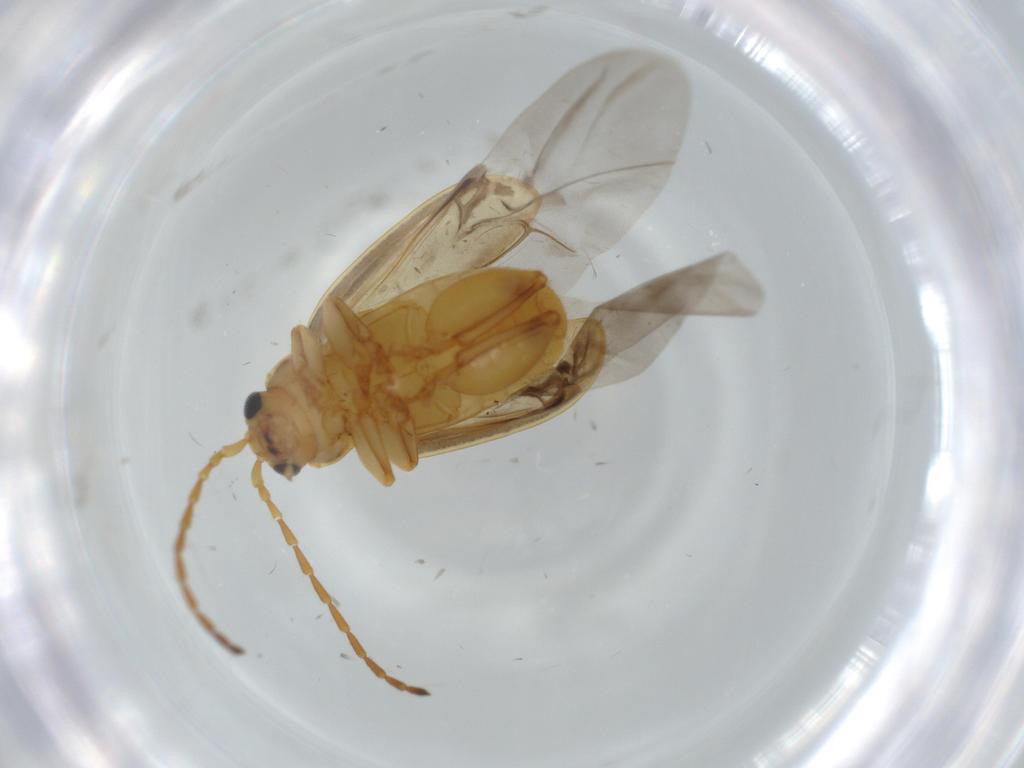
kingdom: Animalia
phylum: Arthropoda
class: Insecta
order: Coleoptera
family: Chrysomelidae
